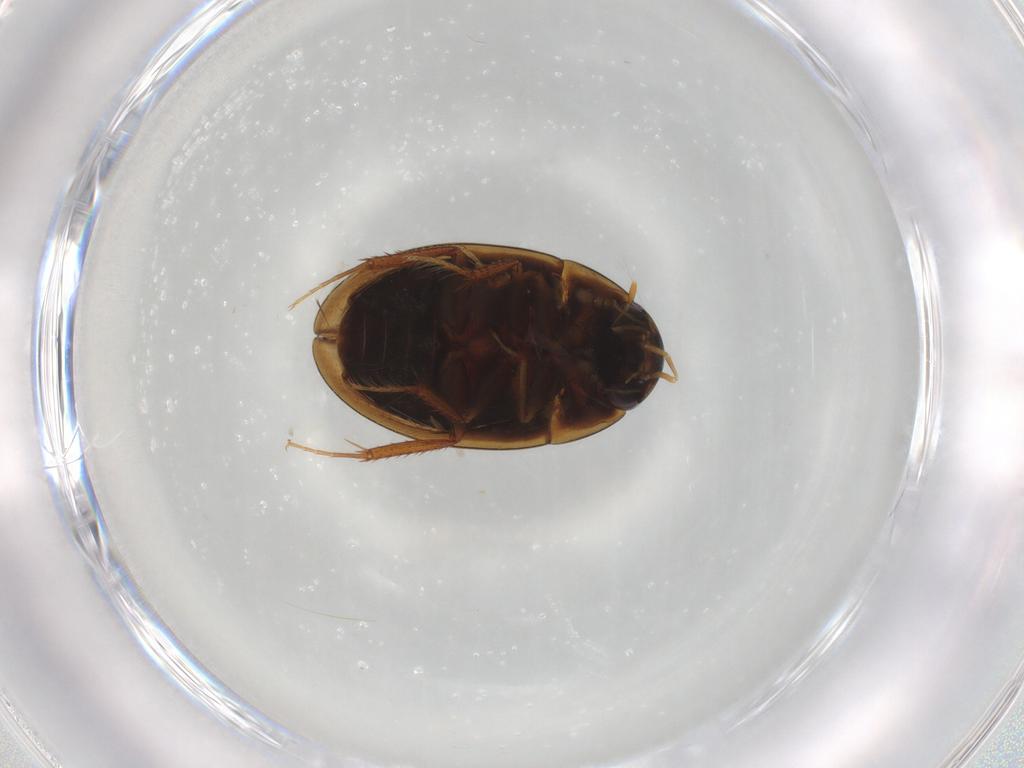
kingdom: Animalia
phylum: Arthropoda
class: Insecta
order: Coleoptera
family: Hydrophilidae
